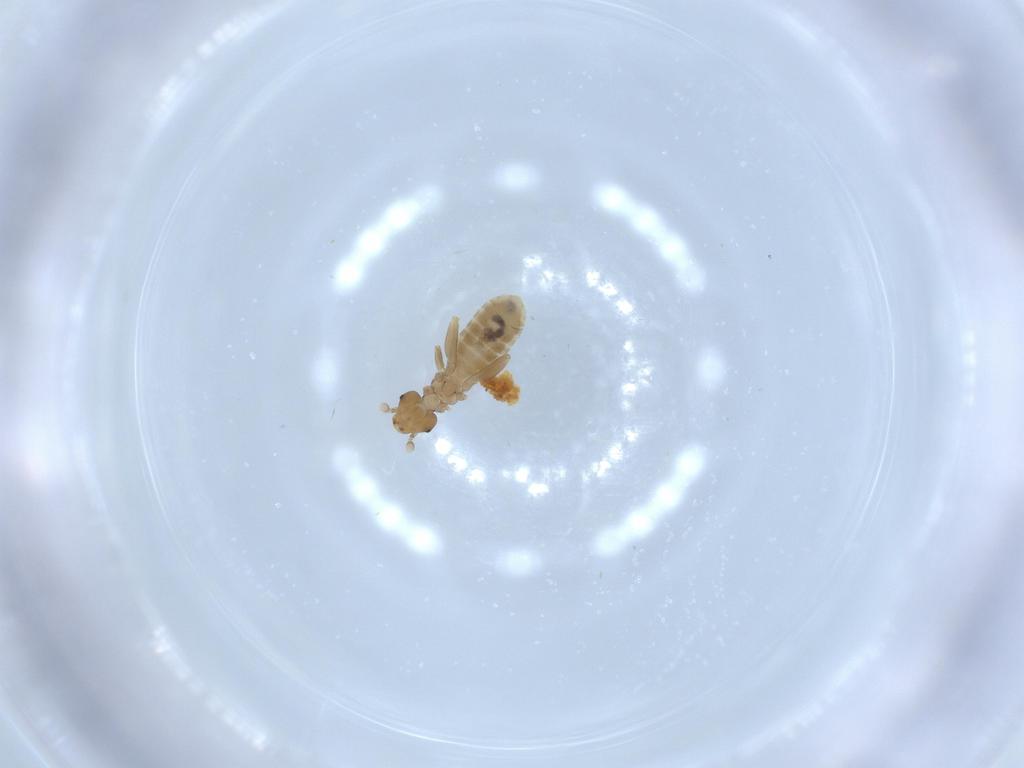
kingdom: Animalia
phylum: Arthropoda
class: Insecta
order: Psocodea
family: Liposcelididae
